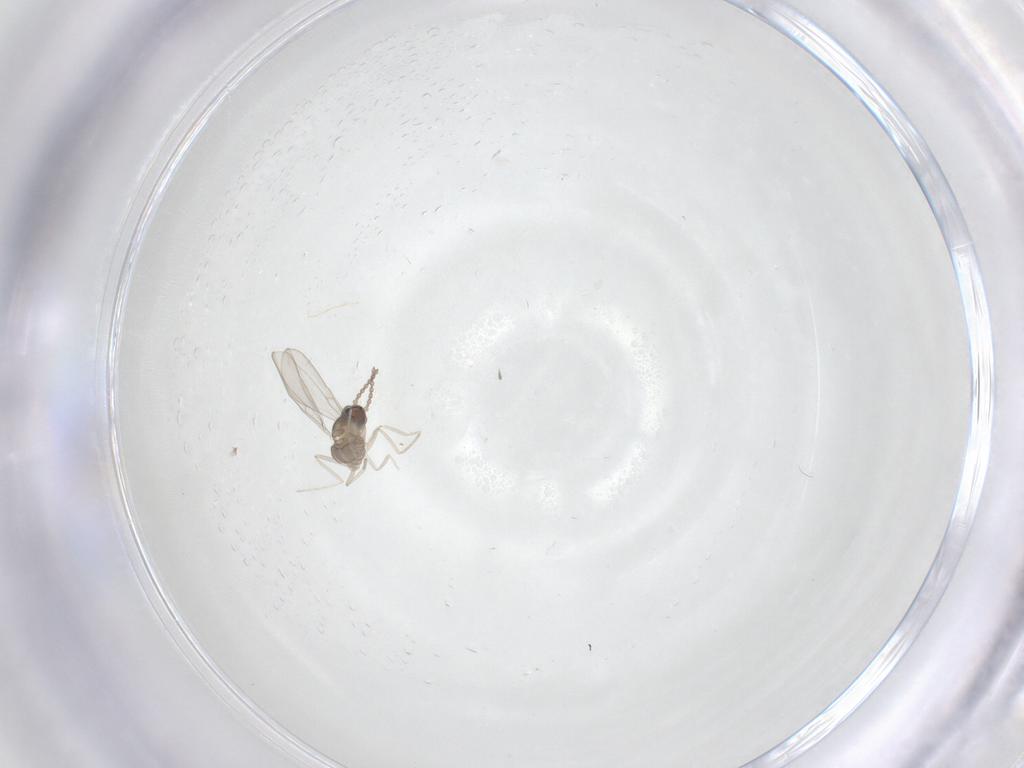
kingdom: Animalia
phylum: Arthropoda
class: Insecta
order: Diptera
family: Cecidomyiidae
